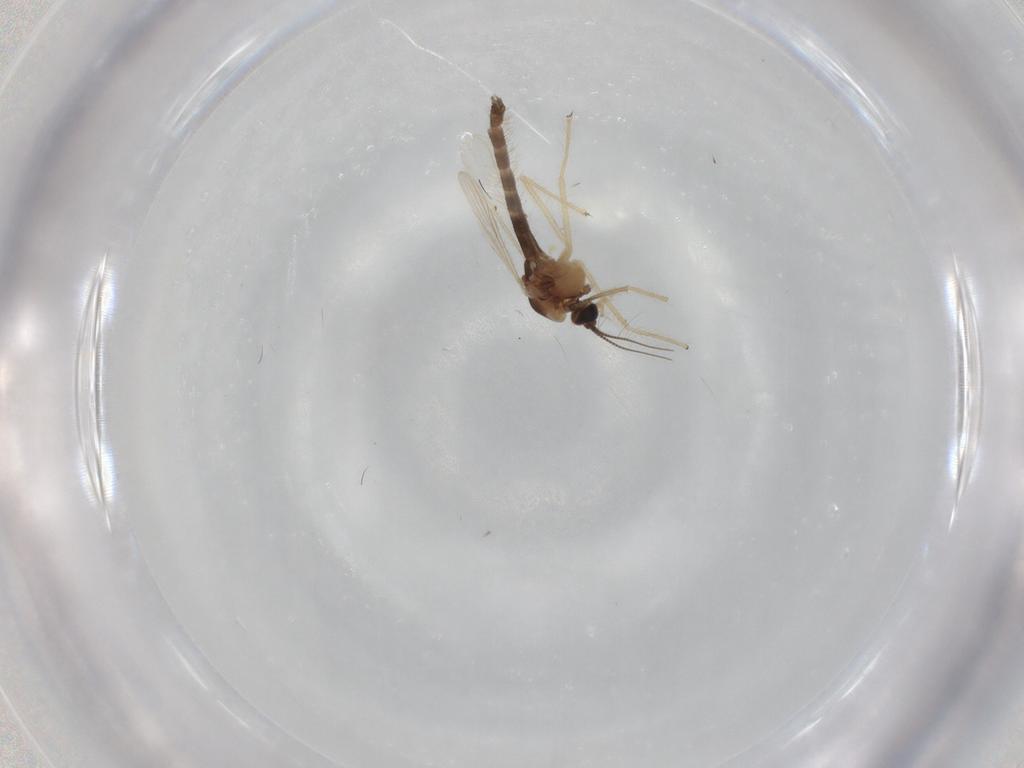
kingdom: Animalia
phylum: Arthropoda
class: Insecta
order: Diptera
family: Chironomidae
